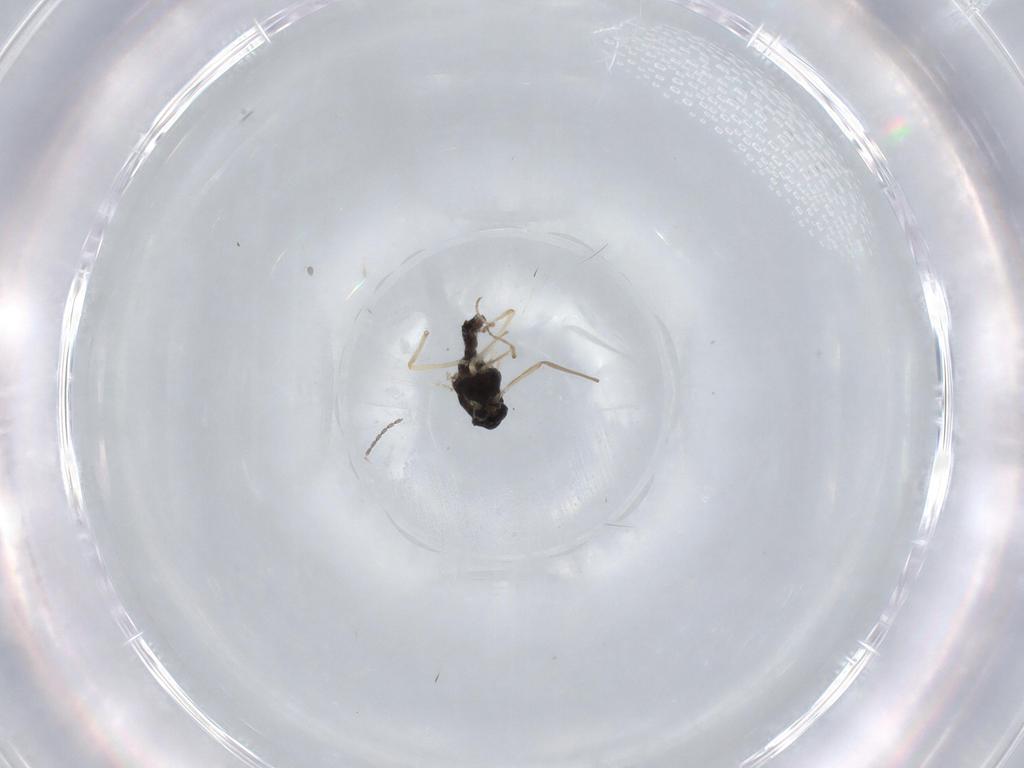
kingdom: Animalia
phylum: Arthropoda
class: Insecta
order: Diptera
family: Chironomidae
